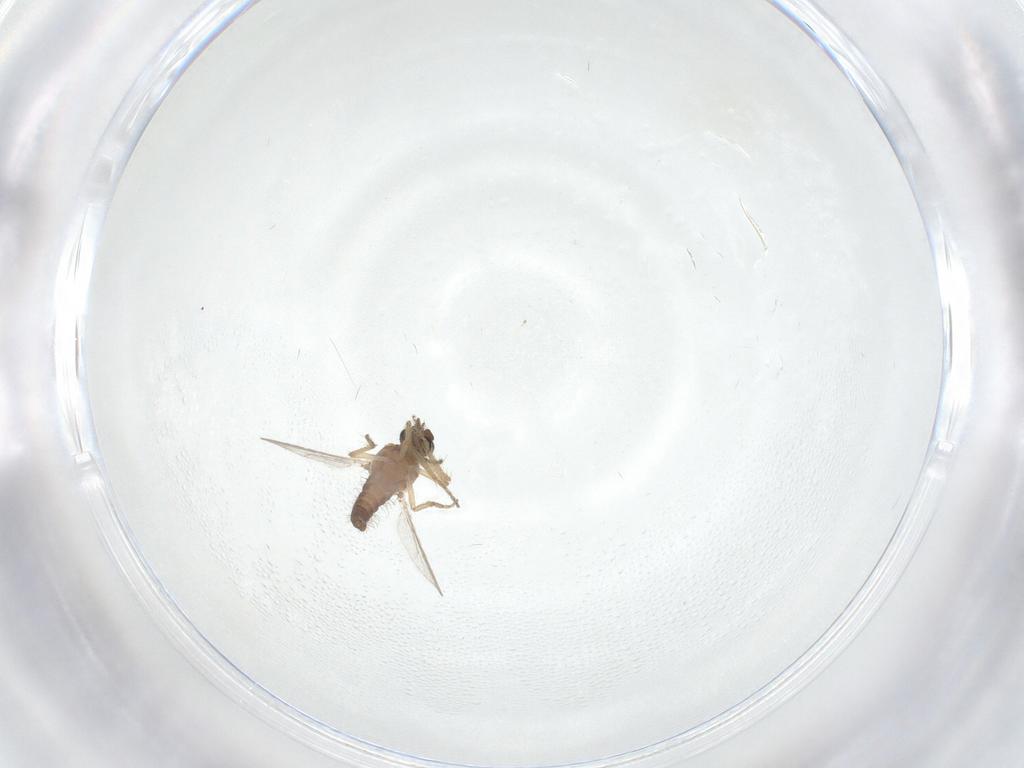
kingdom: Animalia
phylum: Arthropoda
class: Insecta
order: Diptera
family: Ceratopogonidae
